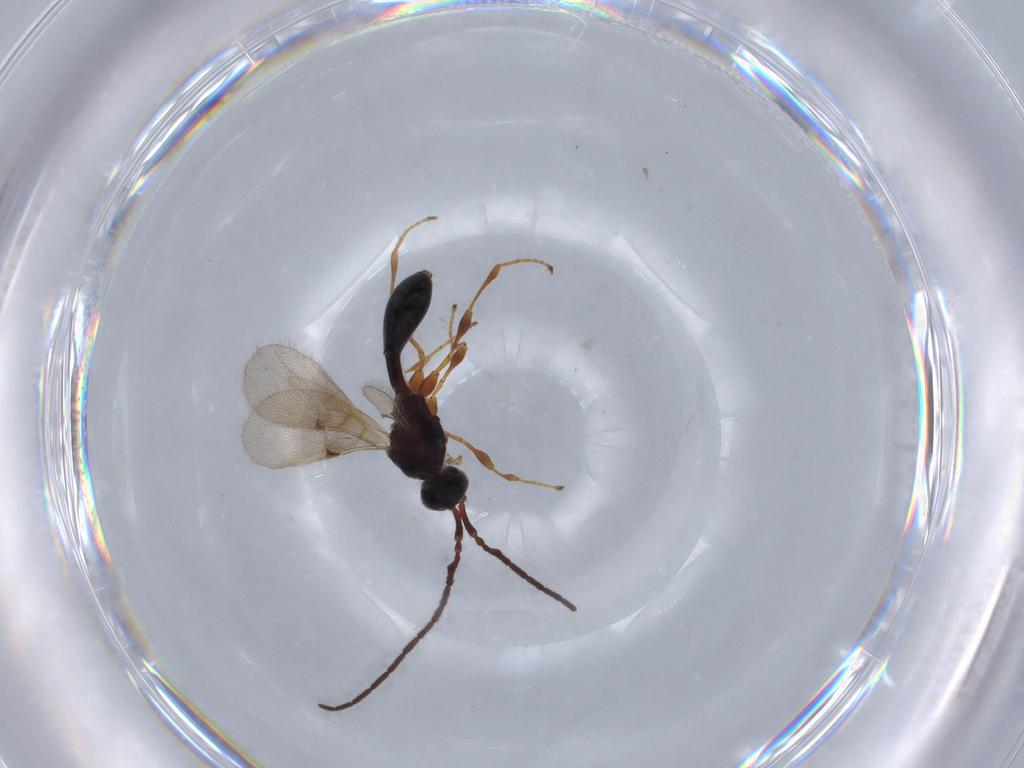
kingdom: Animalia
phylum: Arthropoda
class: Insecta
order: Hymenoptera
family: Diapriidae
